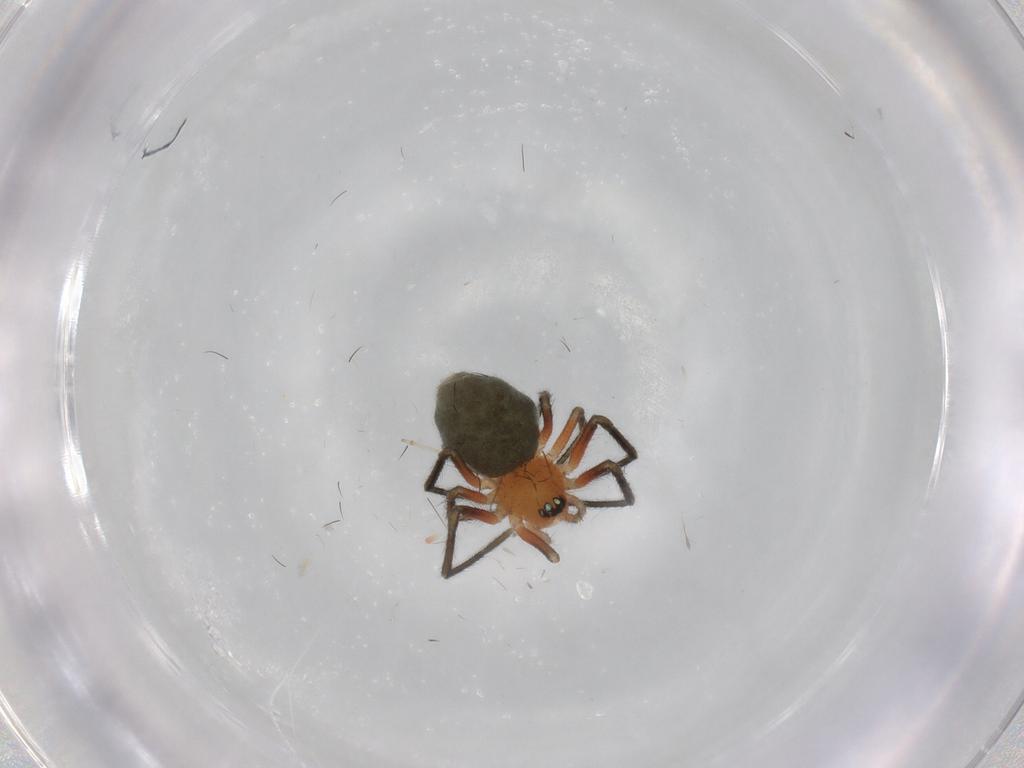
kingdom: Animalia
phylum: Arthropoda
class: Arachnida
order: Araneae
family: Linyphiidae
